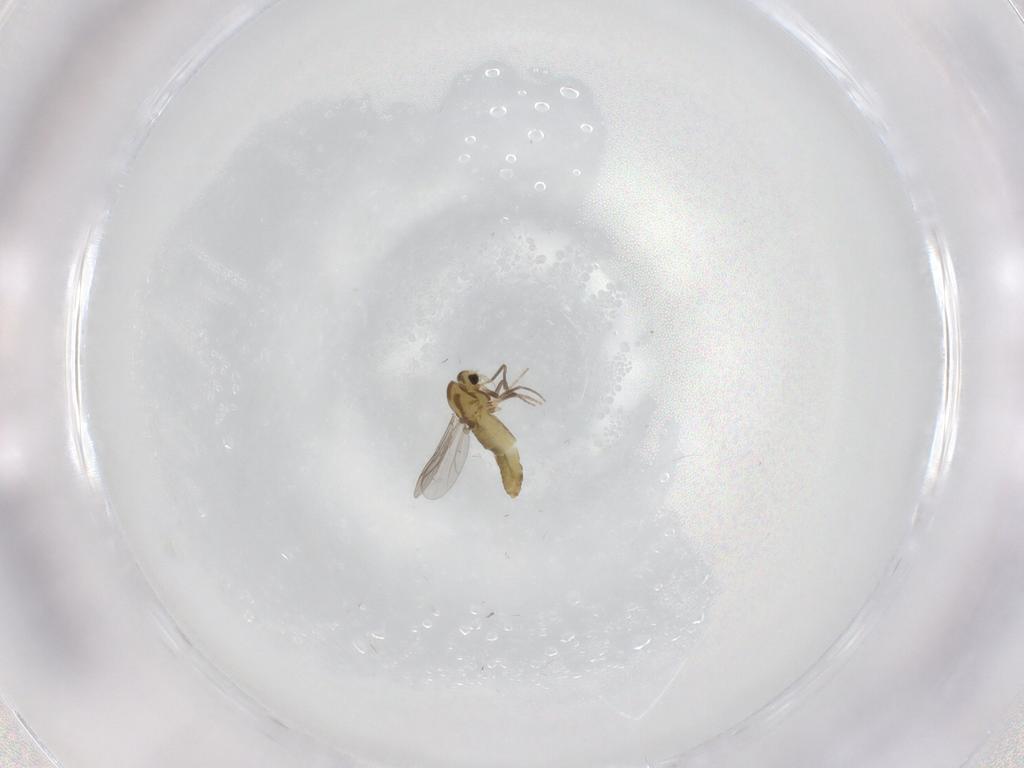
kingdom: Animalia
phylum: Arthropoda
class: Insecta
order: Diptera
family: Chironomidae
